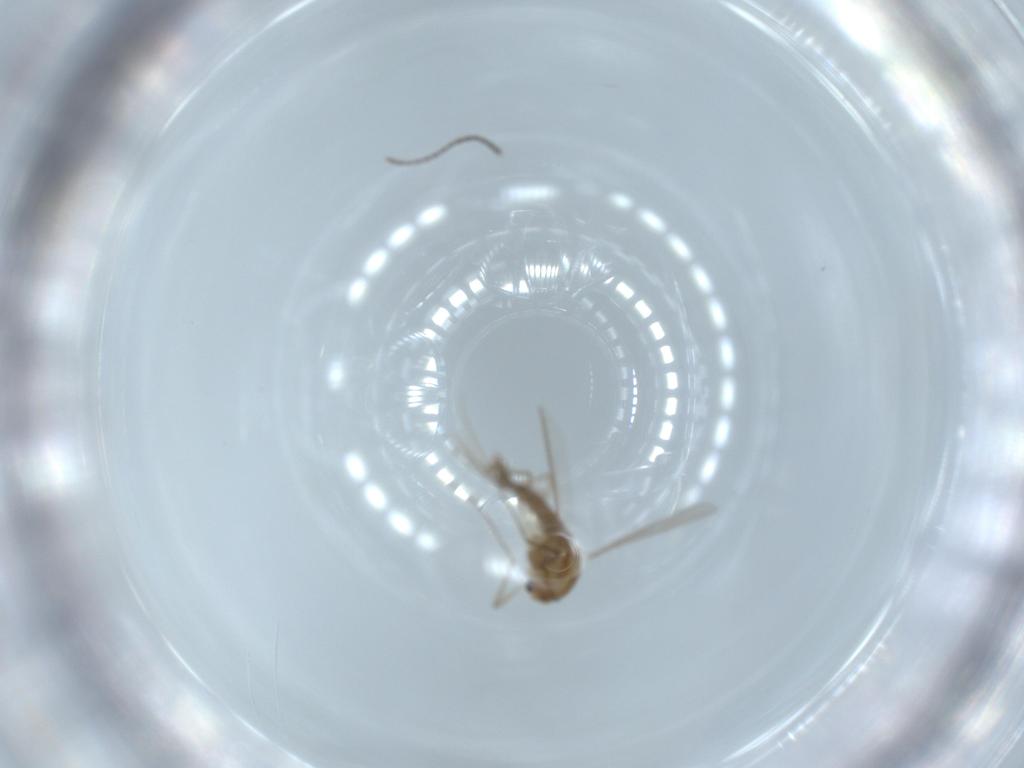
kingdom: Animalia
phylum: Arthropoda
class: Insecta
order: Diptera
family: Chironomidae
